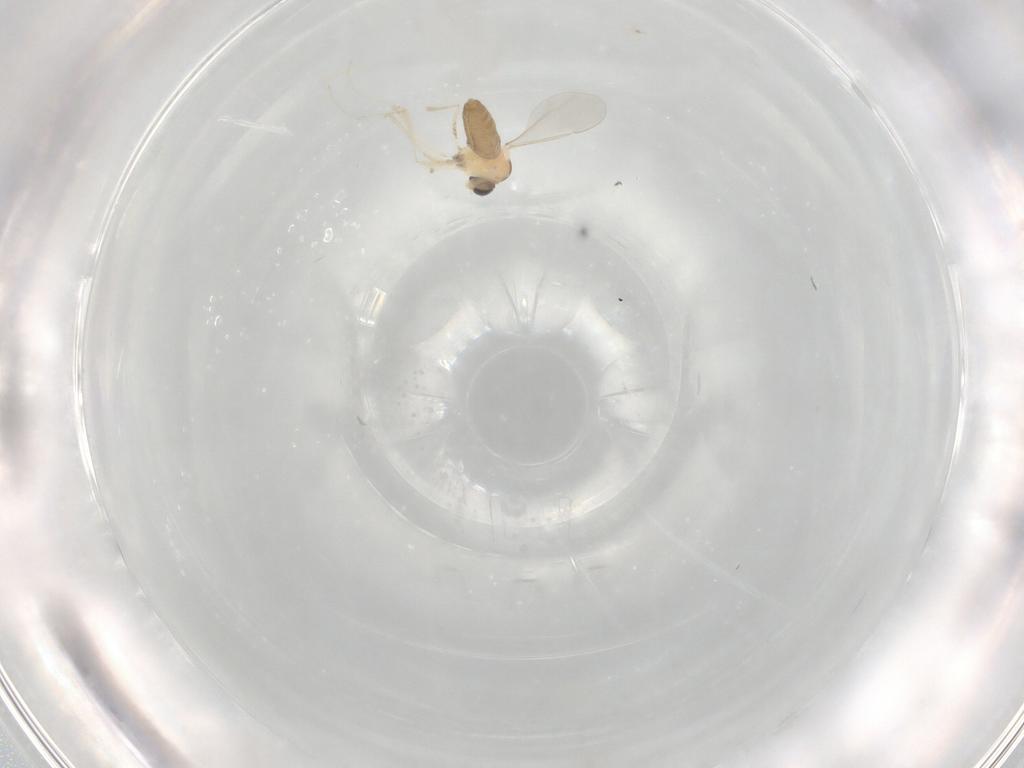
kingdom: Animalia
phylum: Arthropoda
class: Insecta
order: Diptera
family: Cecidomyiidae
